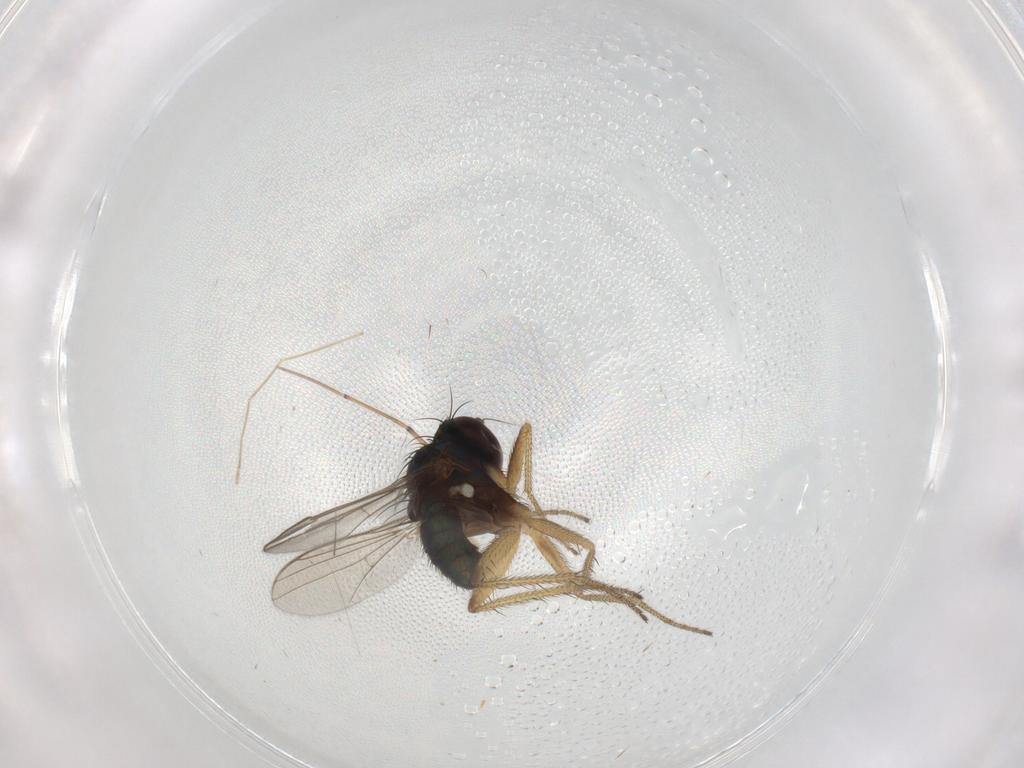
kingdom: Animalia
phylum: Arthropoda
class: Insecta
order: Diptera
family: Chironomidae
